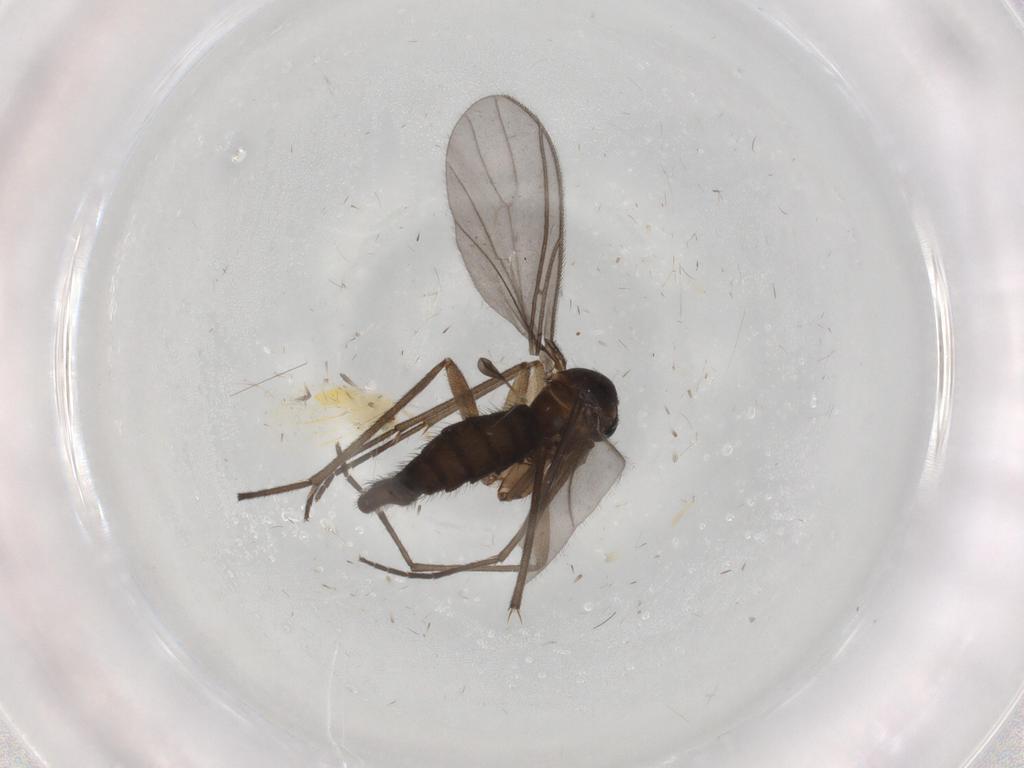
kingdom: Animalia
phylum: Arthropoda
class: Insecta
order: Diptera
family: Sciaridae
